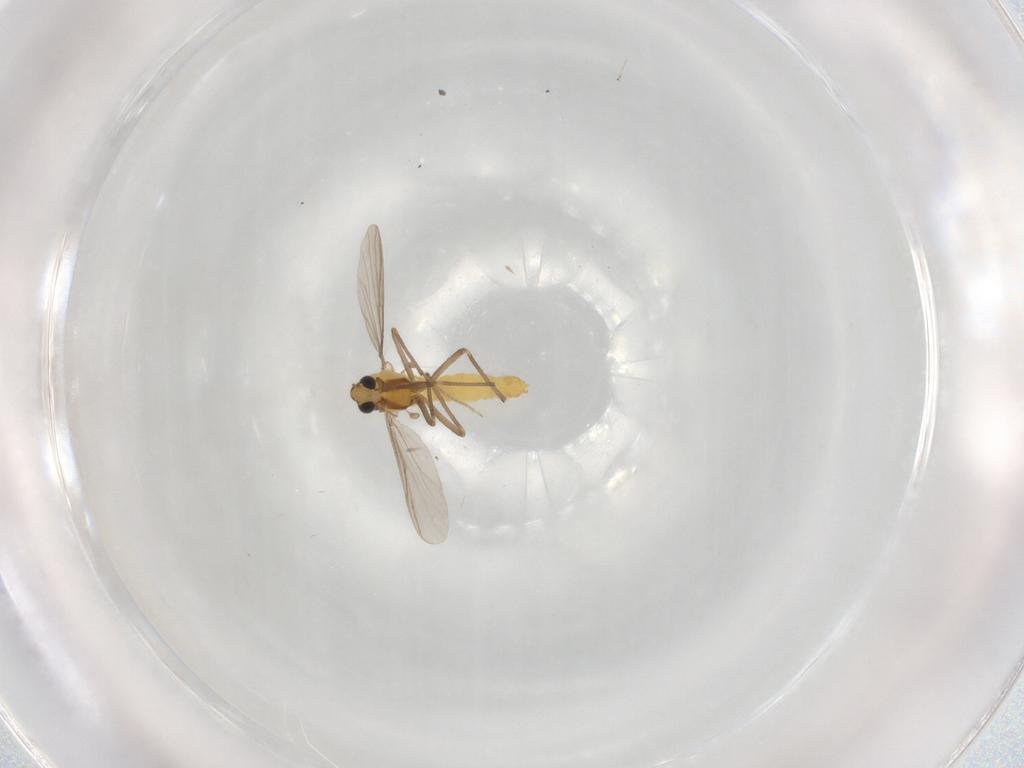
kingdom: Animalia
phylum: Arthropoda
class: Insecta
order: Diptera
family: Chironomidae
